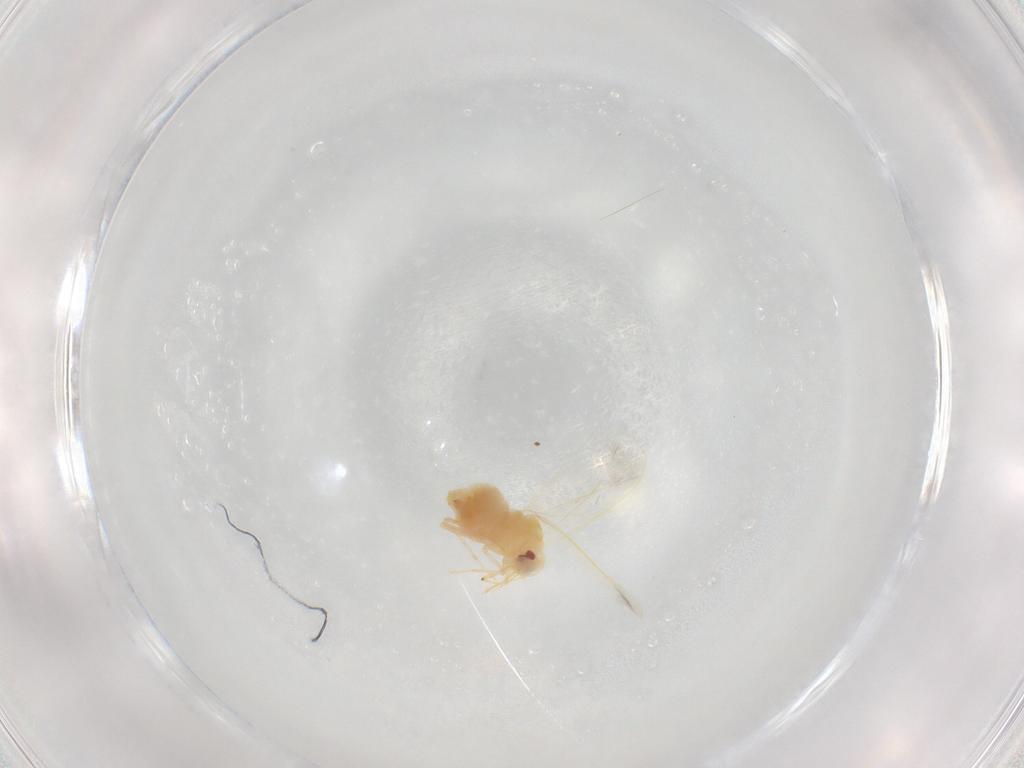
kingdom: Animalia
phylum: Arthropoda
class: Insecta
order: Hemiptera
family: Aleyrodidae
